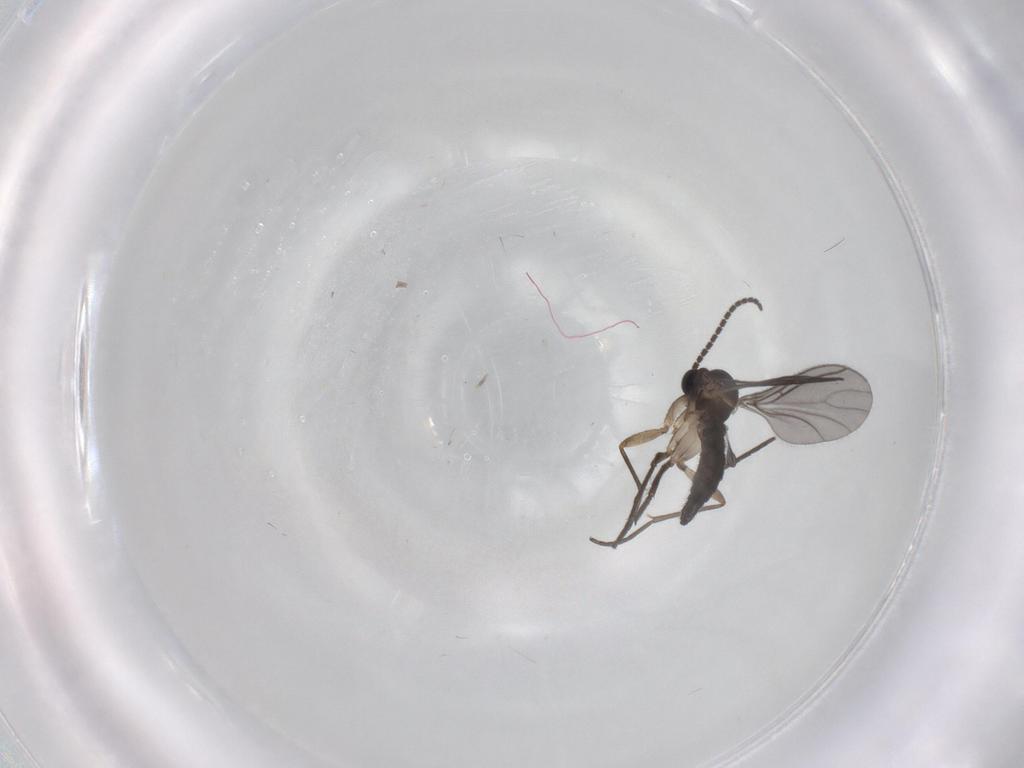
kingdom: Animalia
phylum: Arthropoda
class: Insecta
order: Diptera
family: Sciaridae
